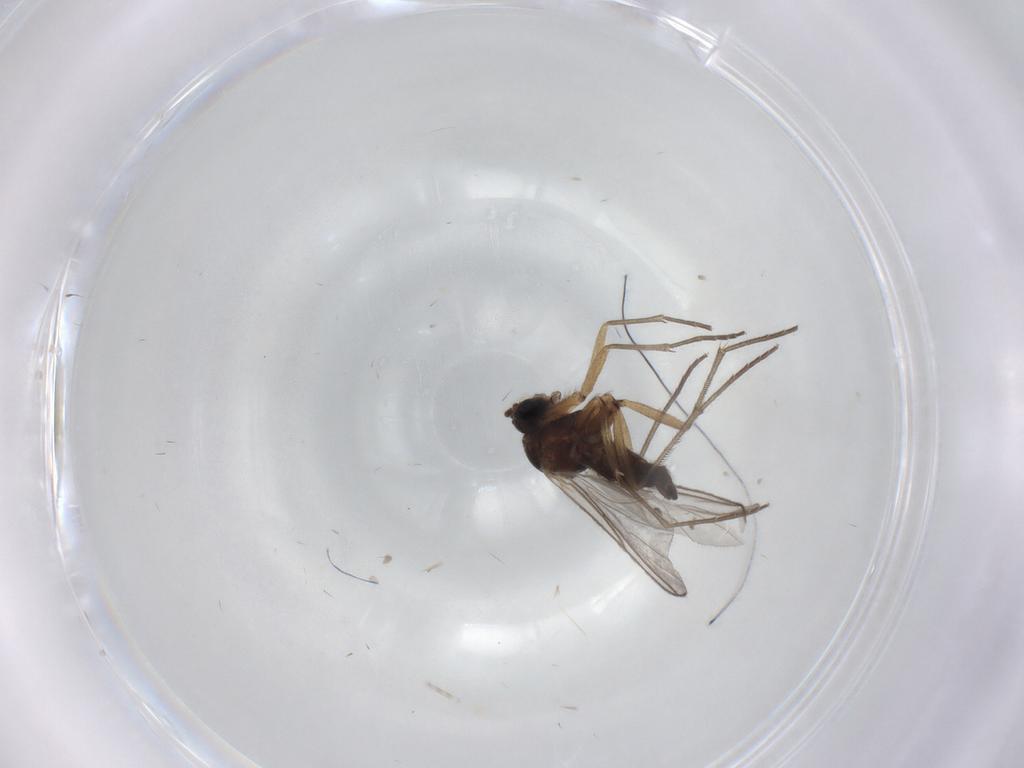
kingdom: Animalia
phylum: Arthropoda
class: Insecta
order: Diptera
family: Sciaridae
